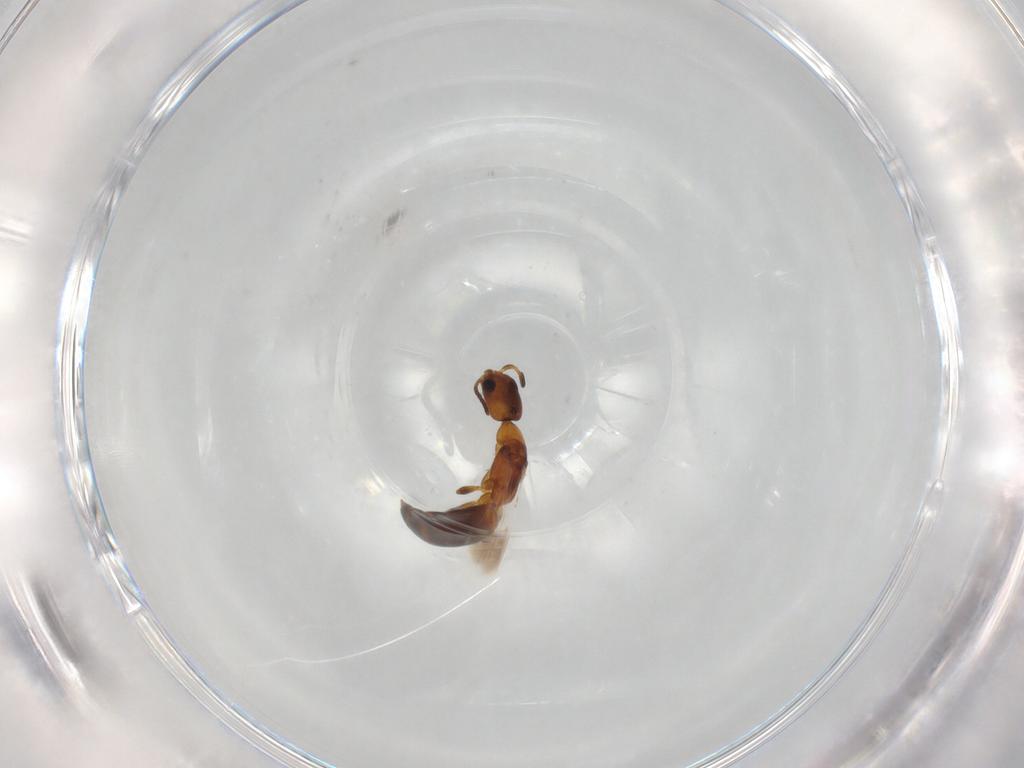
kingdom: Animalia
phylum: Arthropoda
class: Insecta
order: Hymenoptera
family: Bethylidae
